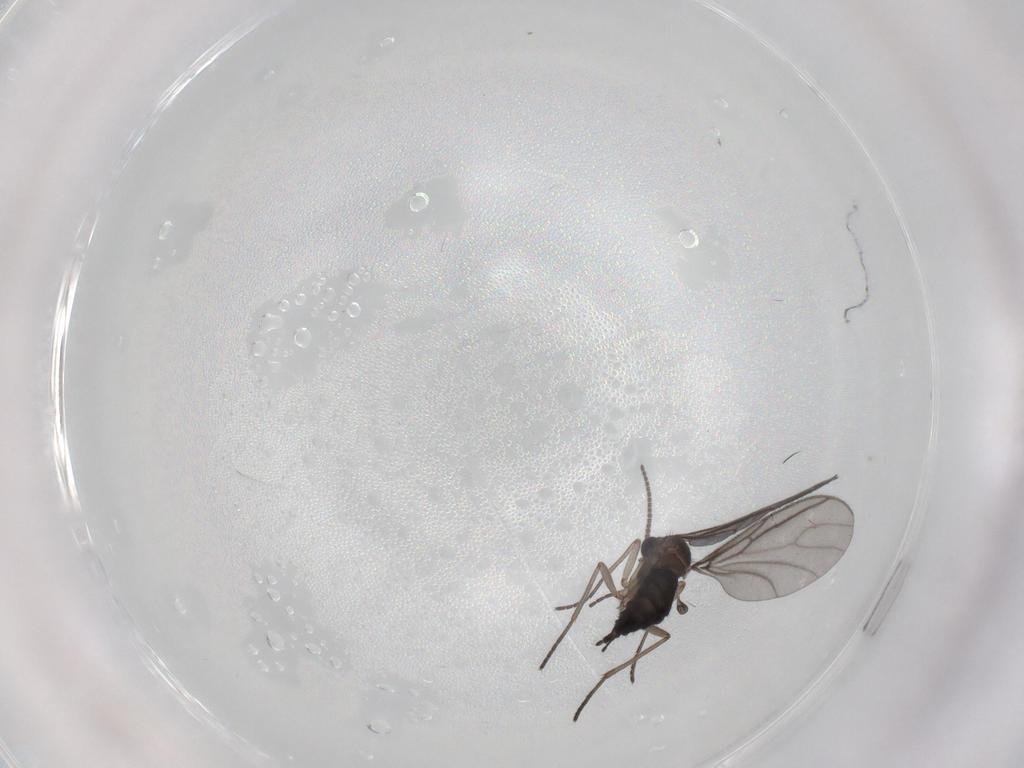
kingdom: Animalia
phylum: Arthropoda
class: Insecta
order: Diptera
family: Sciaridae
